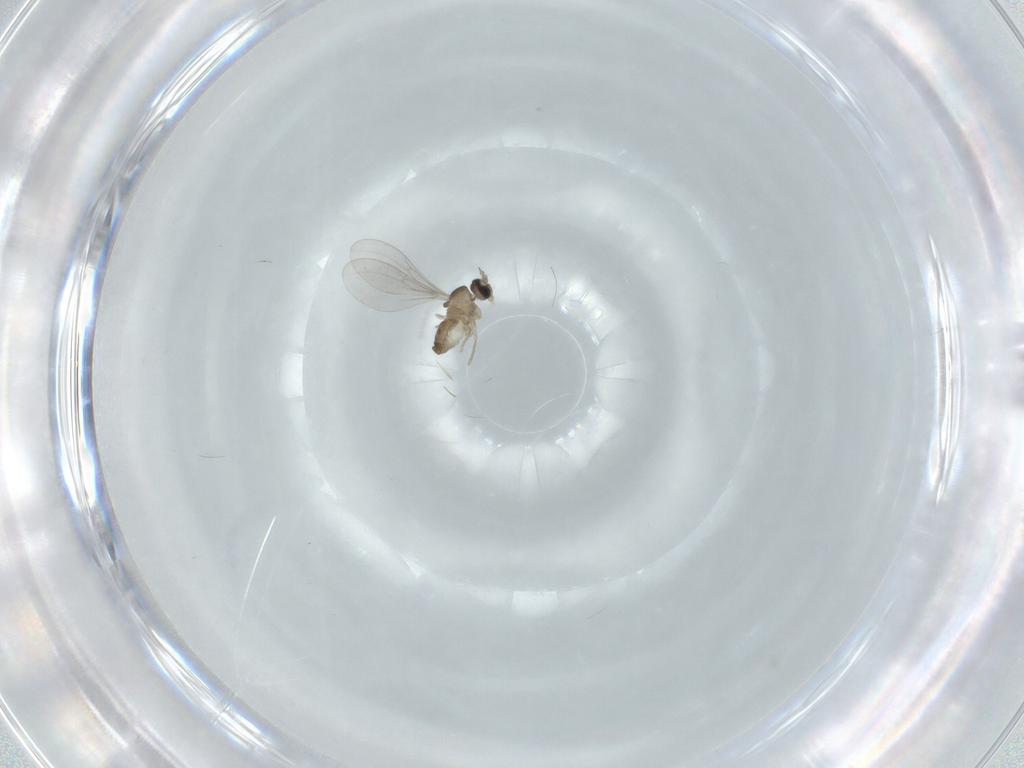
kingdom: Animalia
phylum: Arthropoda
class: Insecta
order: Diptera
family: Cecidomyiidae
